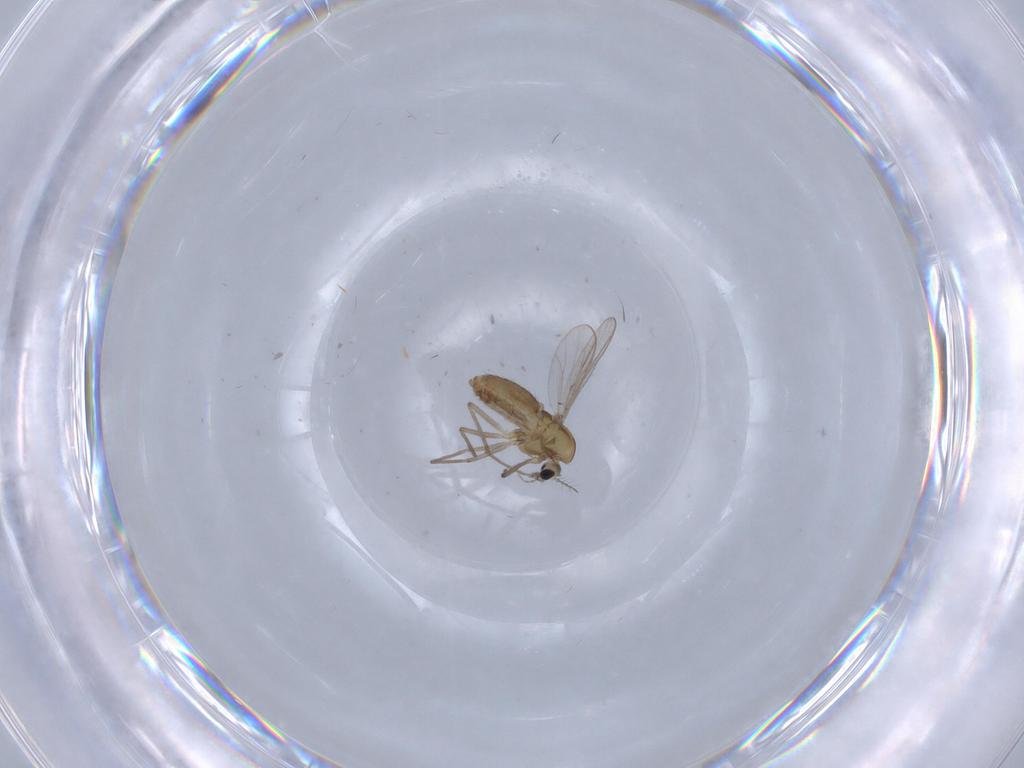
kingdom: Animalia
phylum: Arthropoda
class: Insecta
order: Diptera
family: Chironomidae
